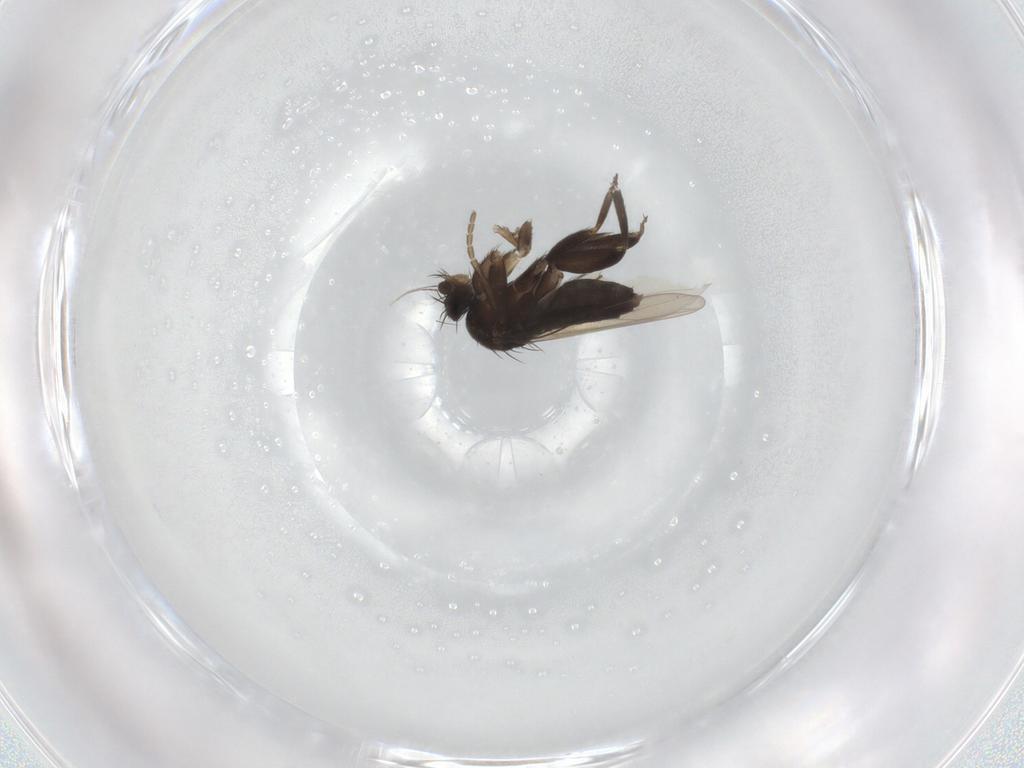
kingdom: Animalia
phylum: Arthropoda
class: Insecta
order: Diptera
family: Phoridae
